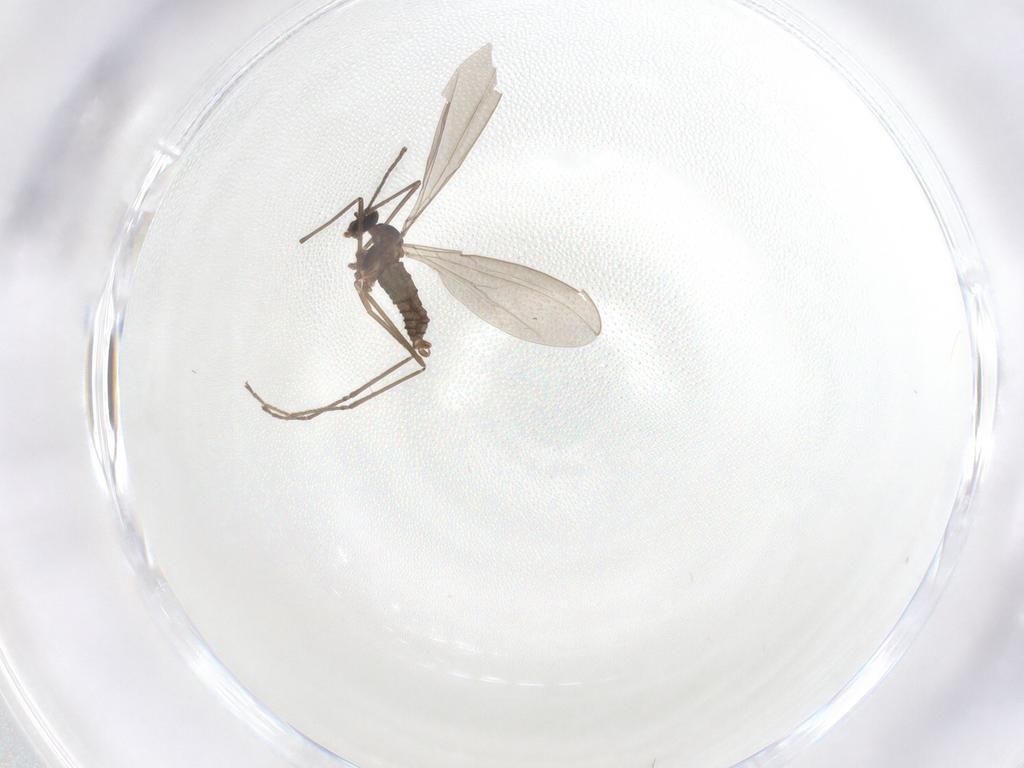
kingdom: Animalia
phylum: Arthropoda
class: Insecta
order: Diptera
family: Cecidomyiidae
